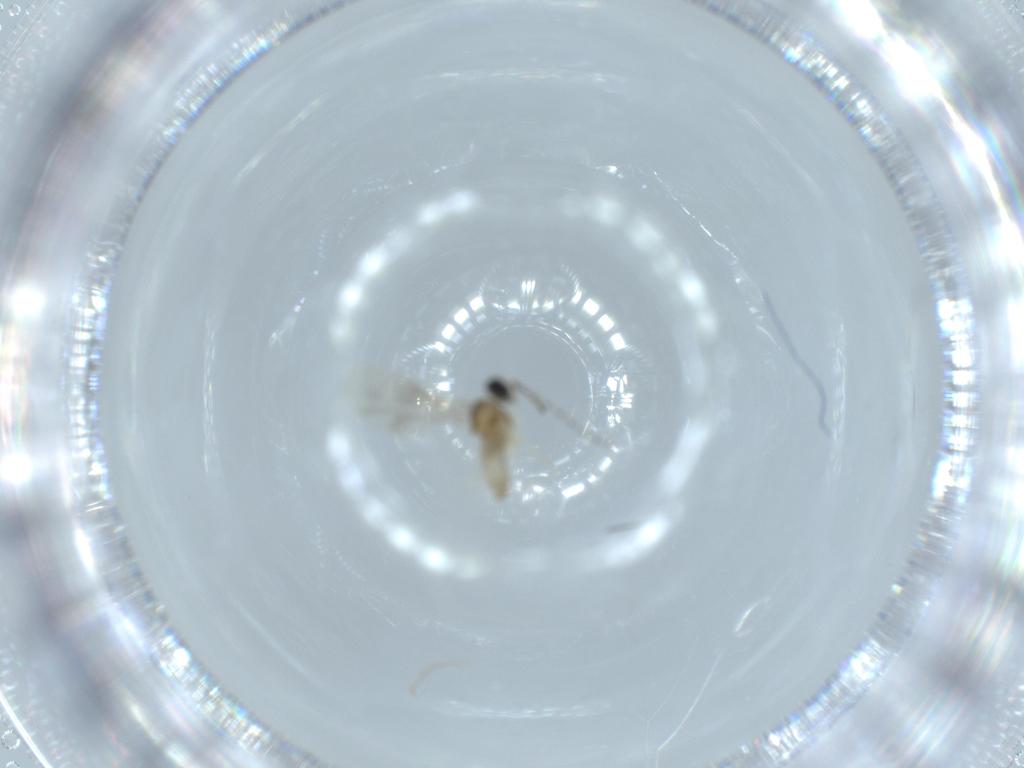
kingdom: Animalia
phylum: Arthropoda
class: Insecta
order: Diptera
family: Cecidomyiidae
